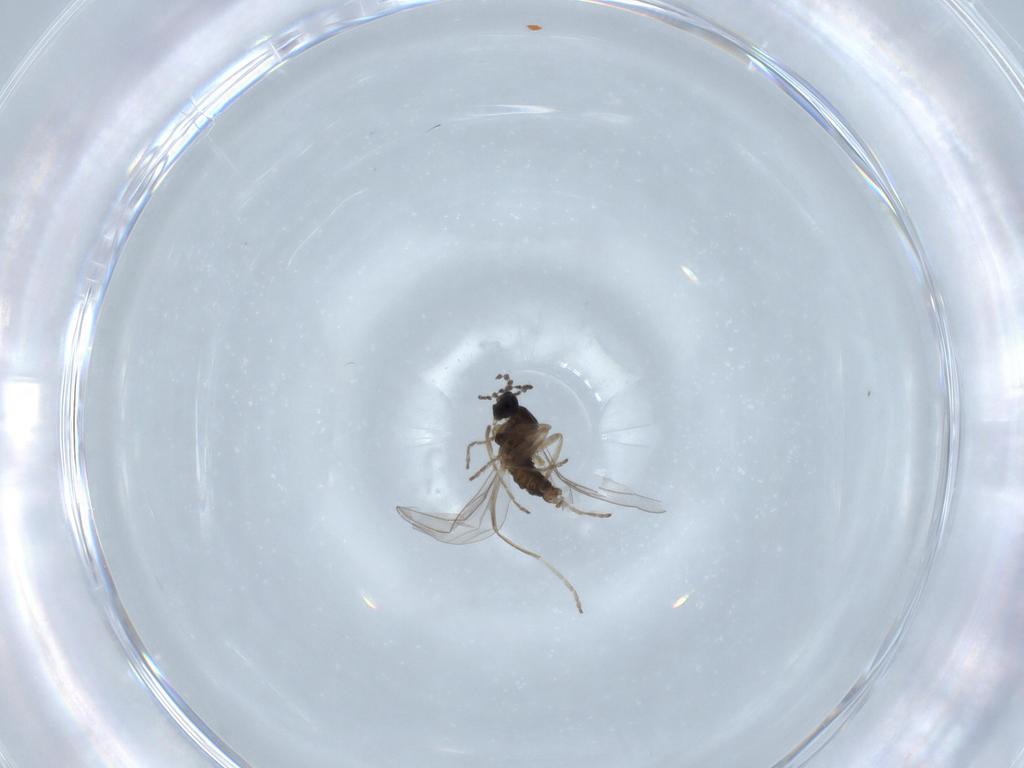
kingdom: Animalia
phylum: Arthropoda
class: Insecta
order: Diptera
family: Cecidomyiidae
